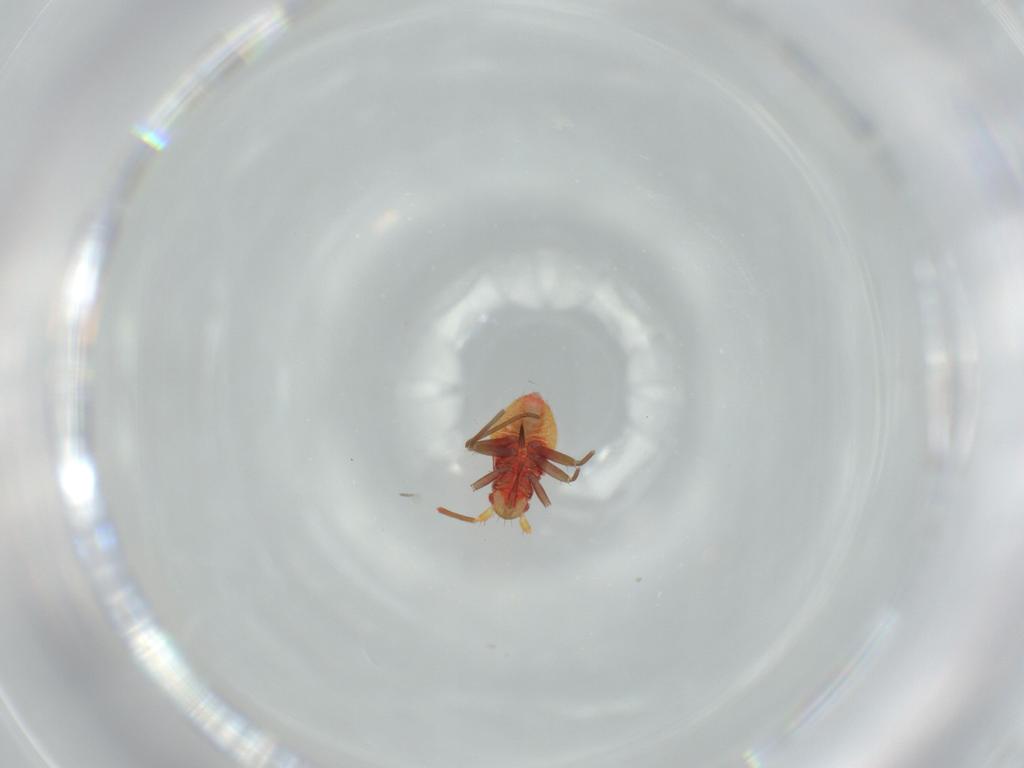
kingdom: Animalia
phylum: Arthropoda
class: Insecta
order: Hemiptera
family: Miridae
